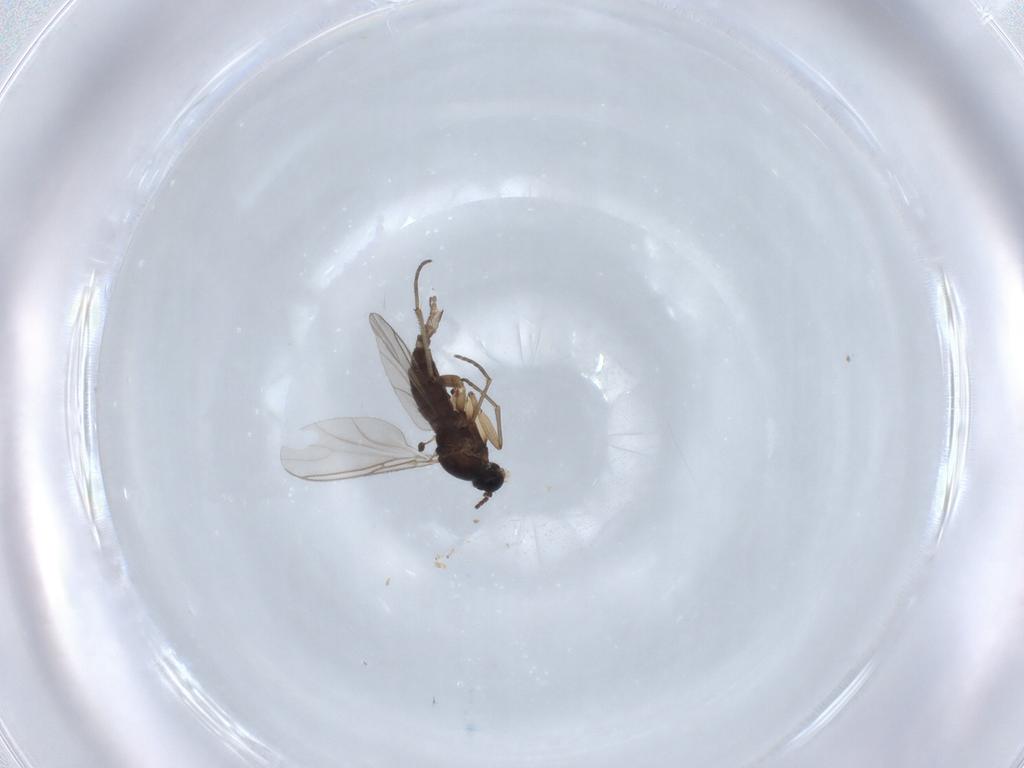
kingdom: Animalia
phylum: Arthropoda
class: Insecta
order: Diptera
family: Sciaridae
